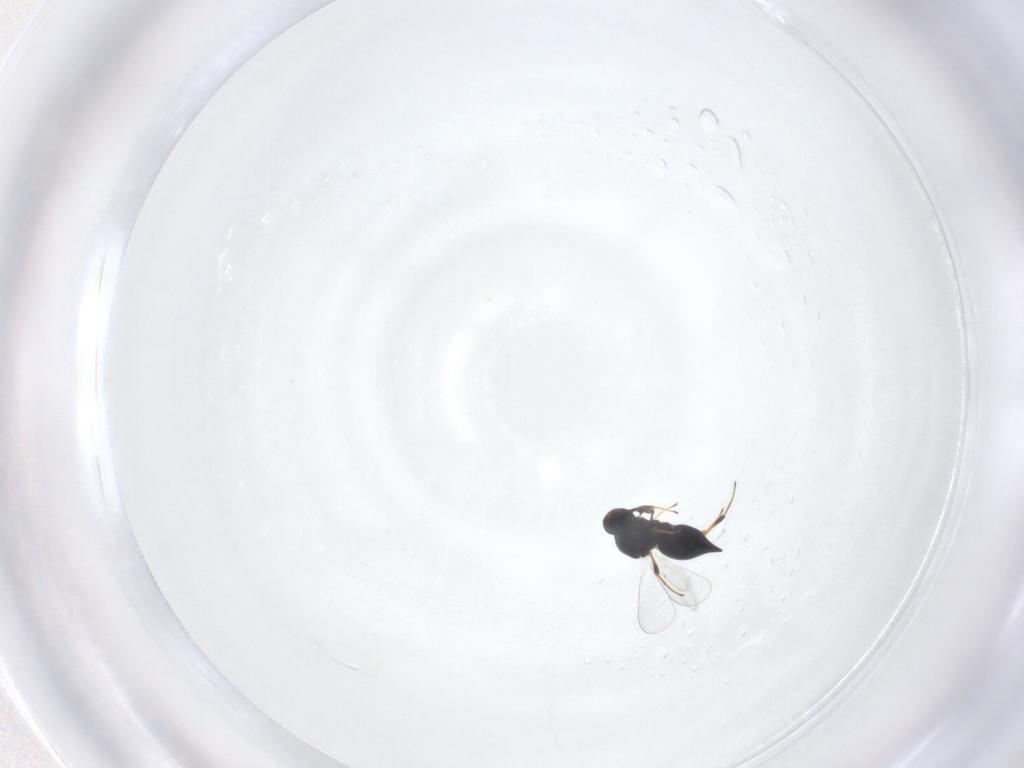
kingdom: Animalia
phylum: Arthropoda
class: Insecta
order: Hymenoptera
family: Platygastridae
